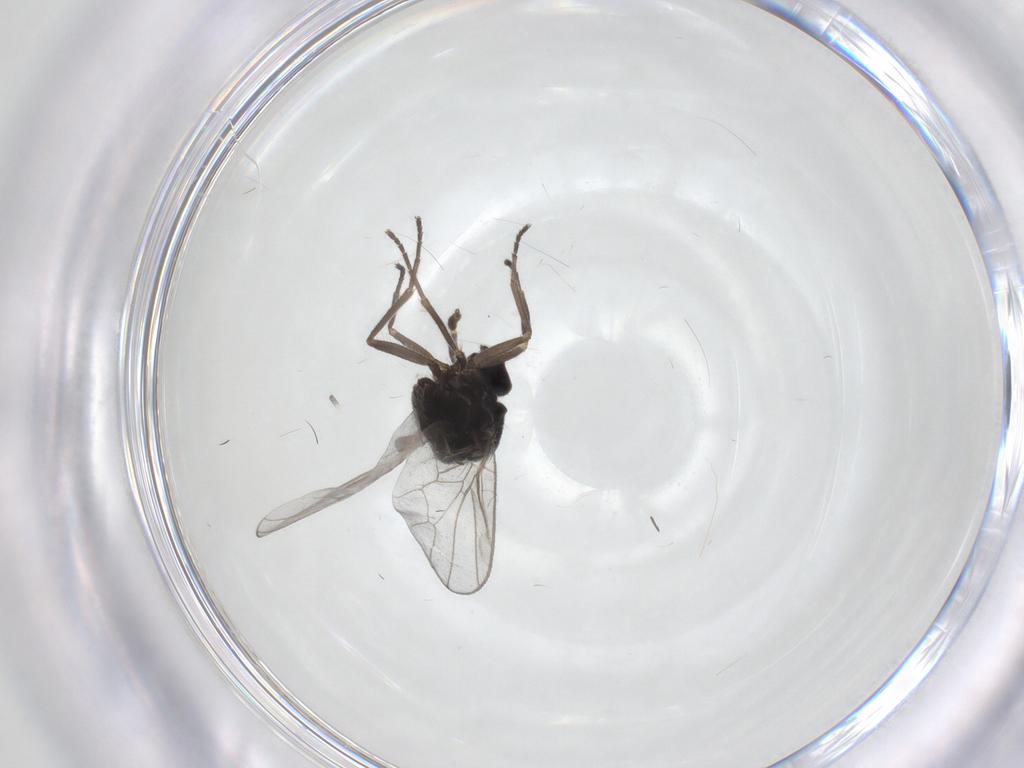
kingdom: Animalia
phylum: Arthropoda
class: Insecta
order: Diptera
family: Hybotidae
